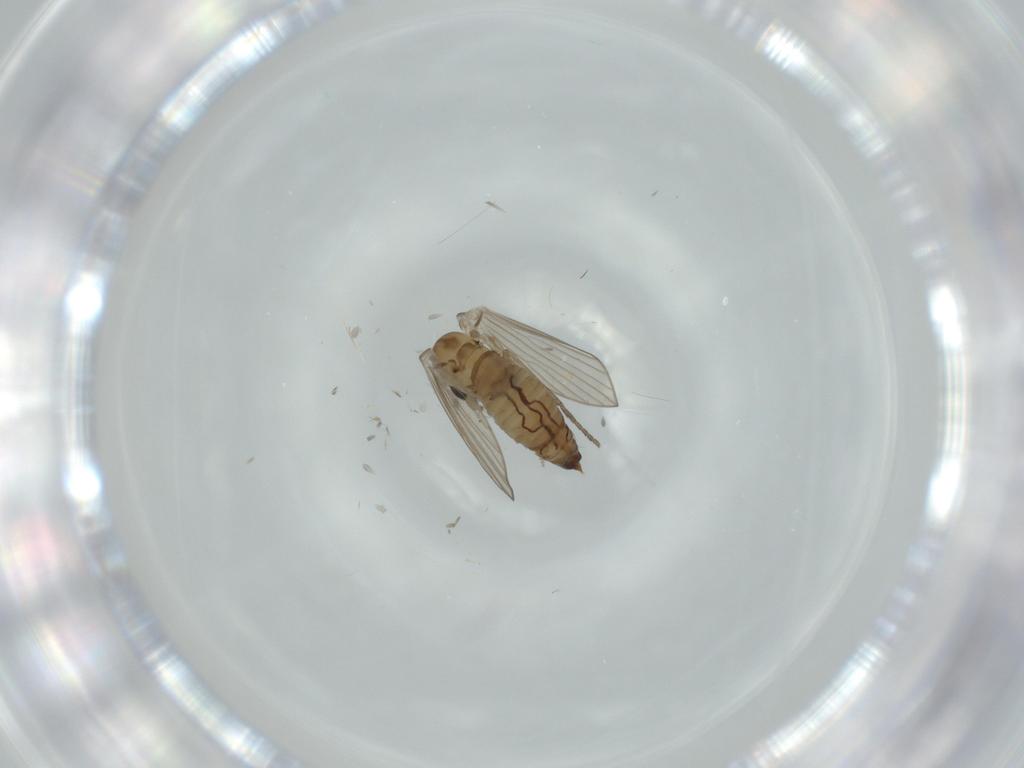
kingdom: Animalia
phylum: Arthropoda
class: Insecta
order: Diptera
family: Psychodidae
